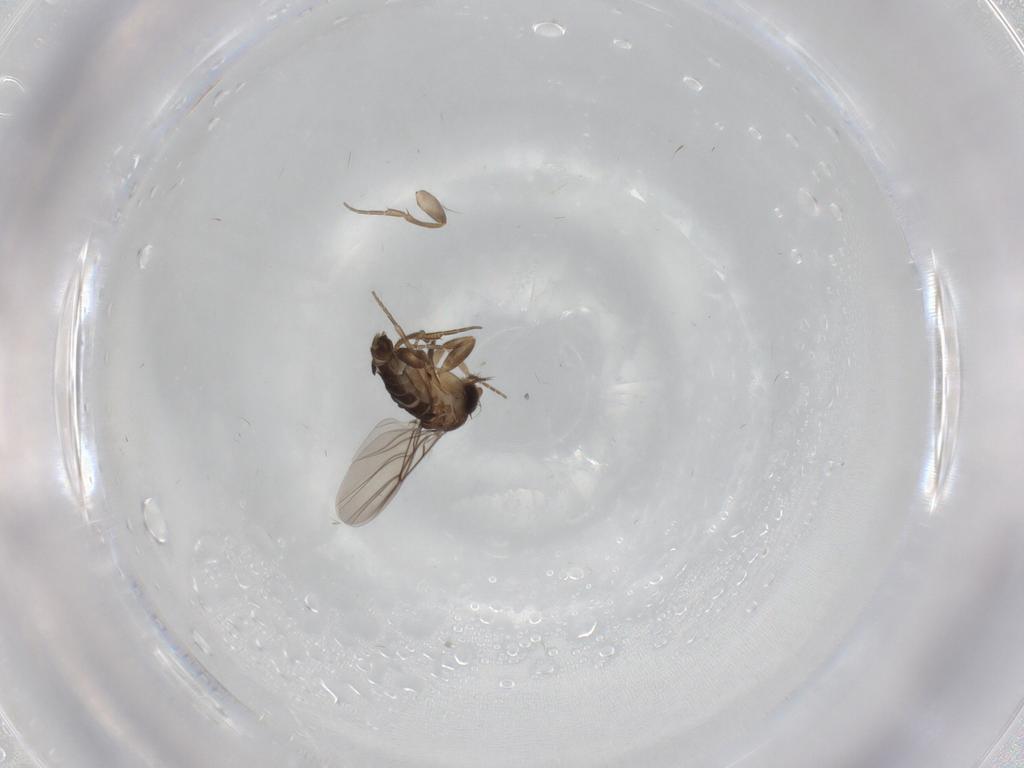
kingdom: Animalia
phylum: Arthropoda
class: Insecta
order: Diptera
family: Phoridae
